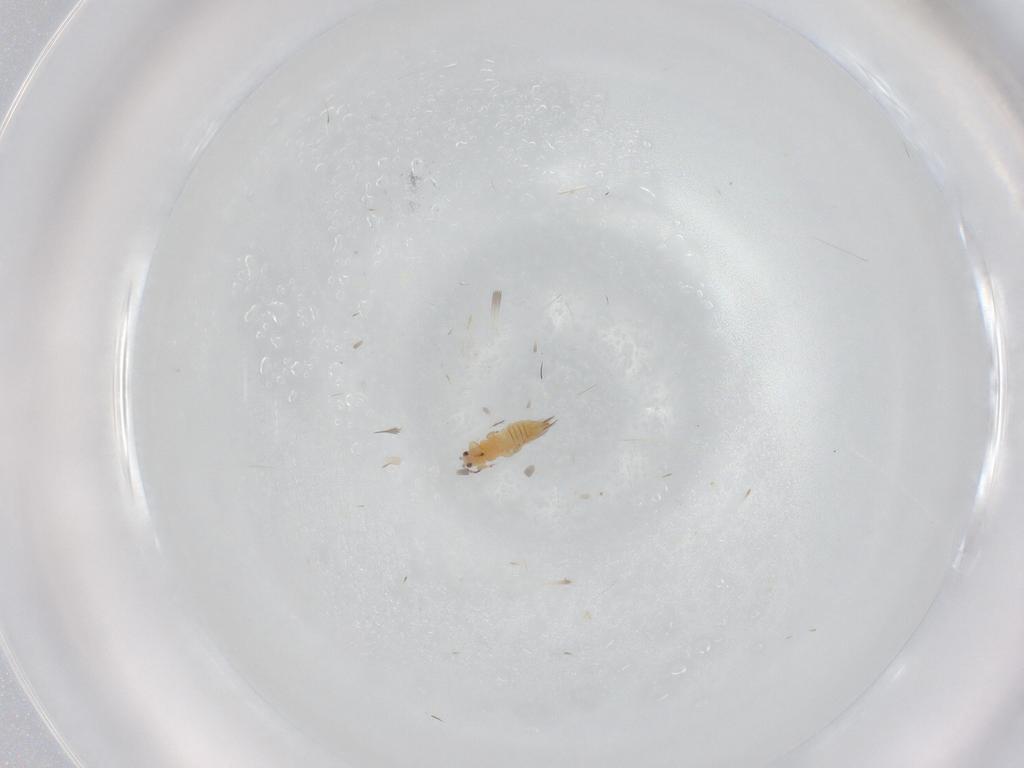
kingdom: Animalia
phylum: Arthropoda
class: Insecta
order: Thysanoptera
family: Thripidae
